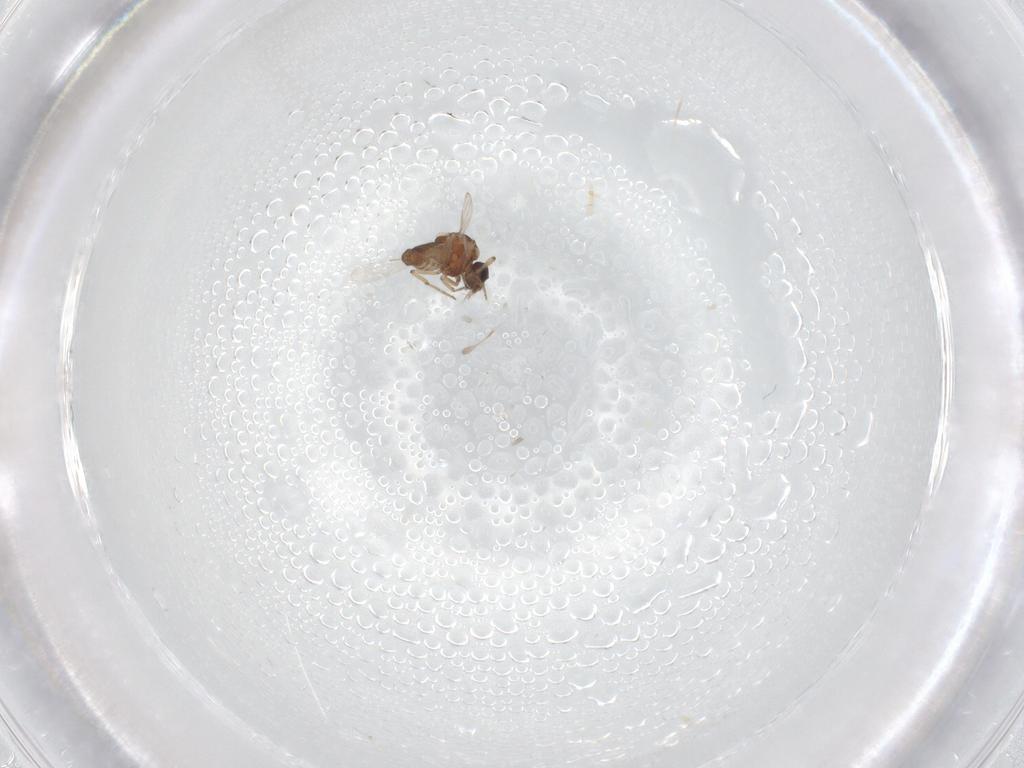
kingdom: Animalia
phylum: Arthropoda
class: Insecta
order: Diptera
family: Ceratopogonidae
